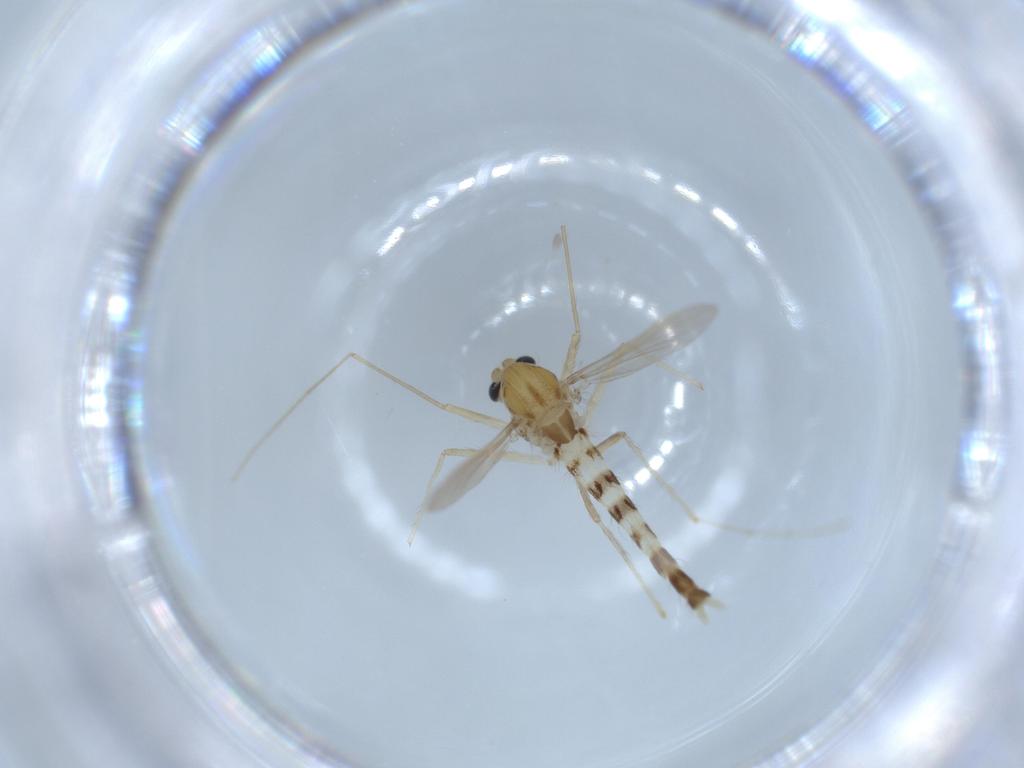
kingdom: Animalia
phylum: Arthropoda
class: Insecta
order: Diptera
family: Chironomidae
